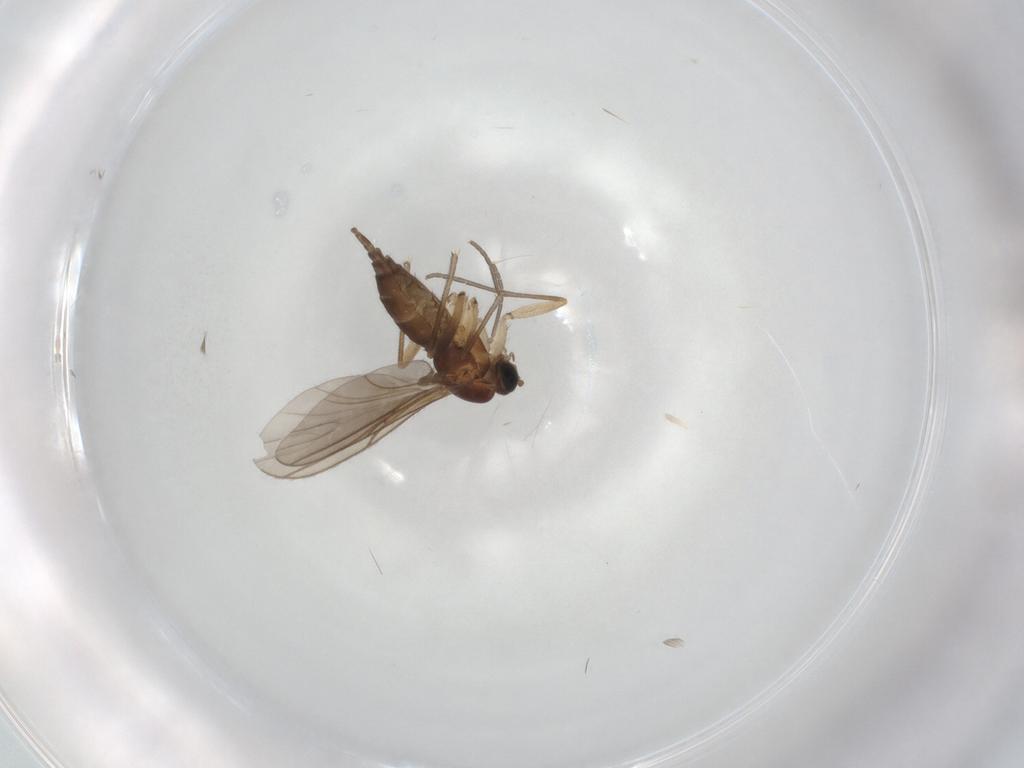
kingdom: Animalia
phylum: Arthropoda
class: Insecta
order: Diptera
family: Sciaridae
